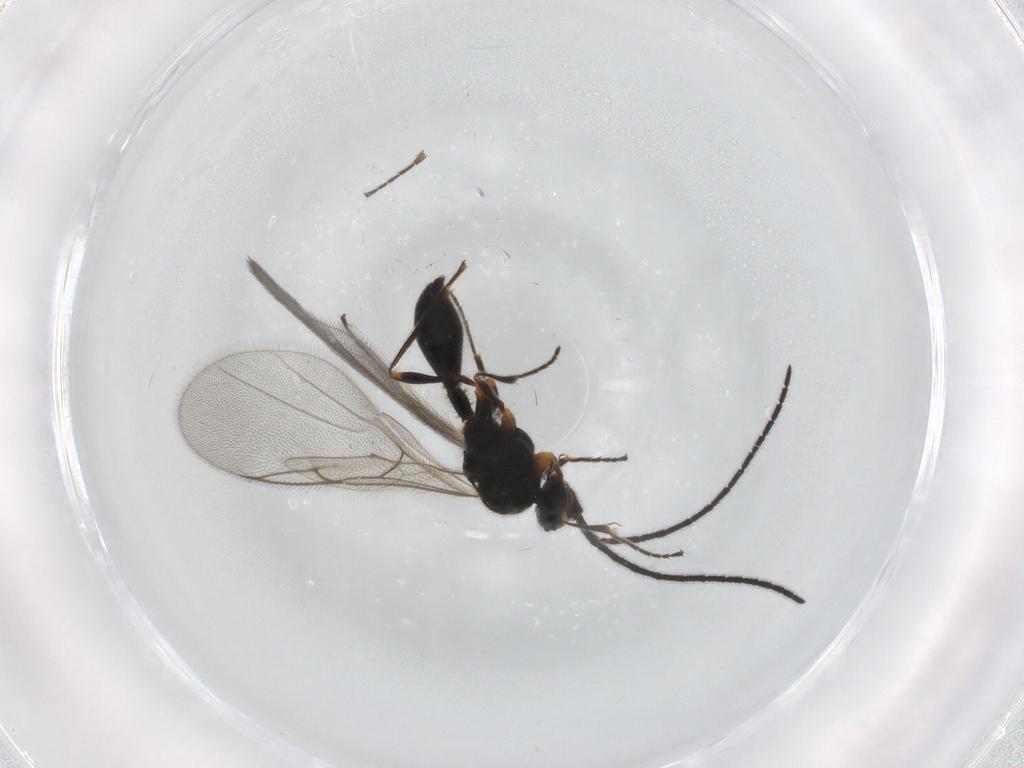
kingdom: Animalia
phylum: Arthropoda
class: Insecta
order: Hymenoptera
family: Diapriidae
